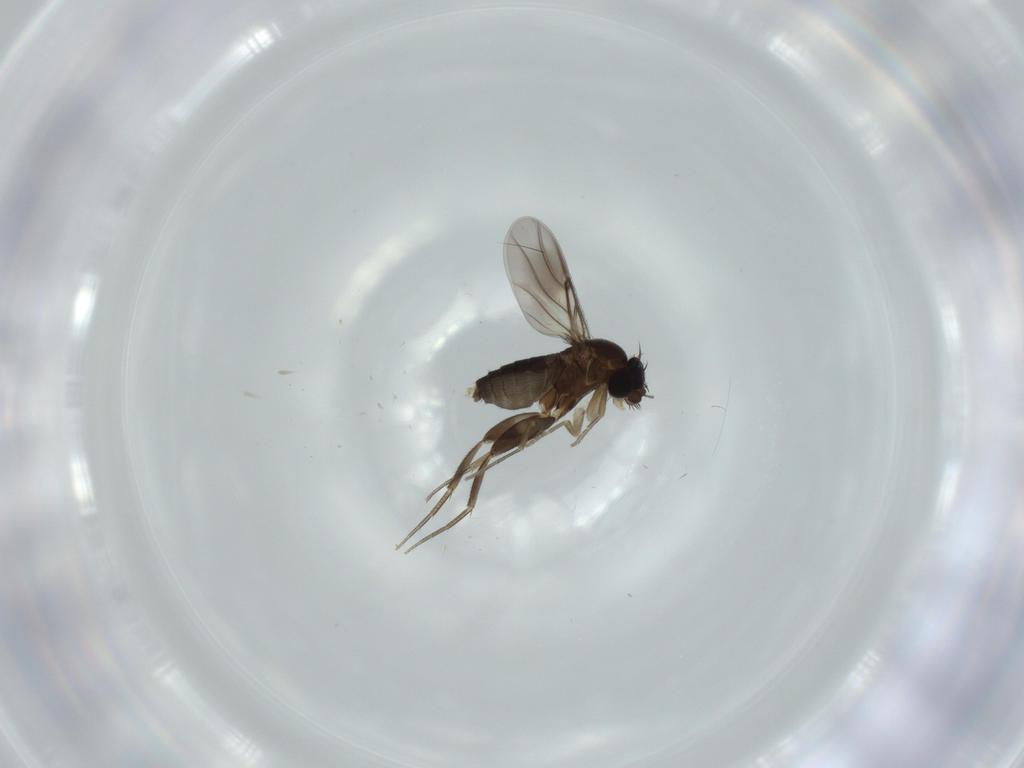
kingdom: Animalia
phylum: Arthropoda
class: Insecta
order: Diptera
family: Phoridae
